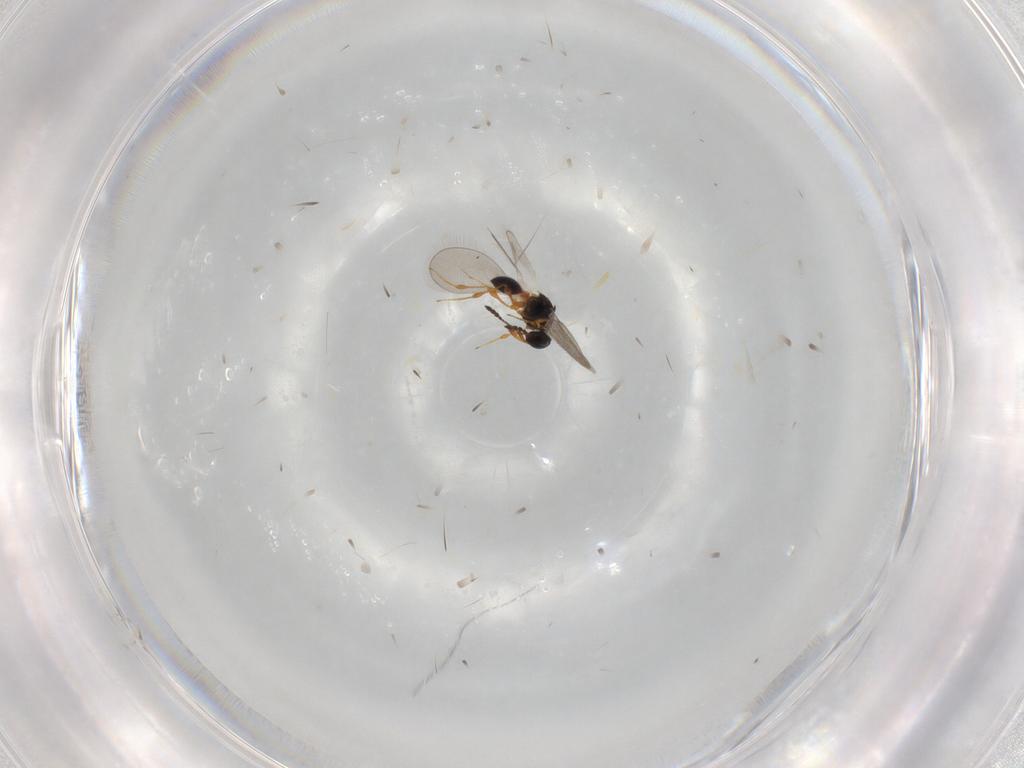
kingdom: Animalia
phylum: Arthropoda
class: Insecta
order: Hymenoptera
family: Platygastridae
